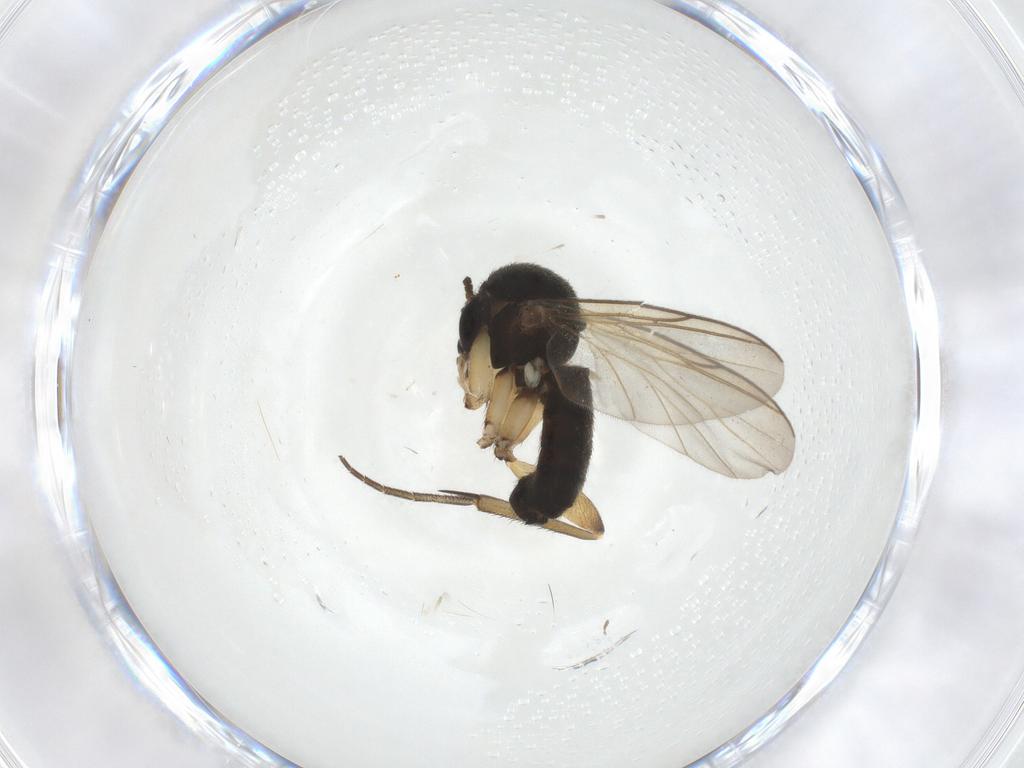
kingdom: Animalia
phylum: Arthropoda
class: Insecta
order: Diptera
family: Mycetophilidae
